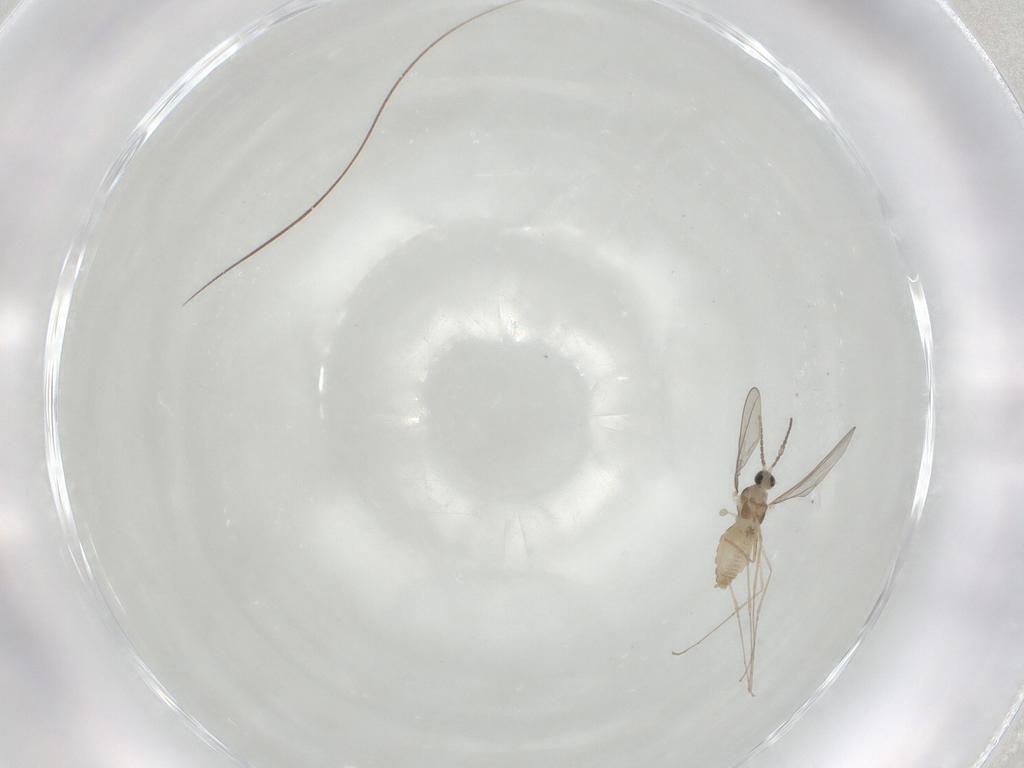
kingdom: Animalia
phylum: Arthropoda
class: Insecta
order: Diptera
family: Cecidomyiidae
